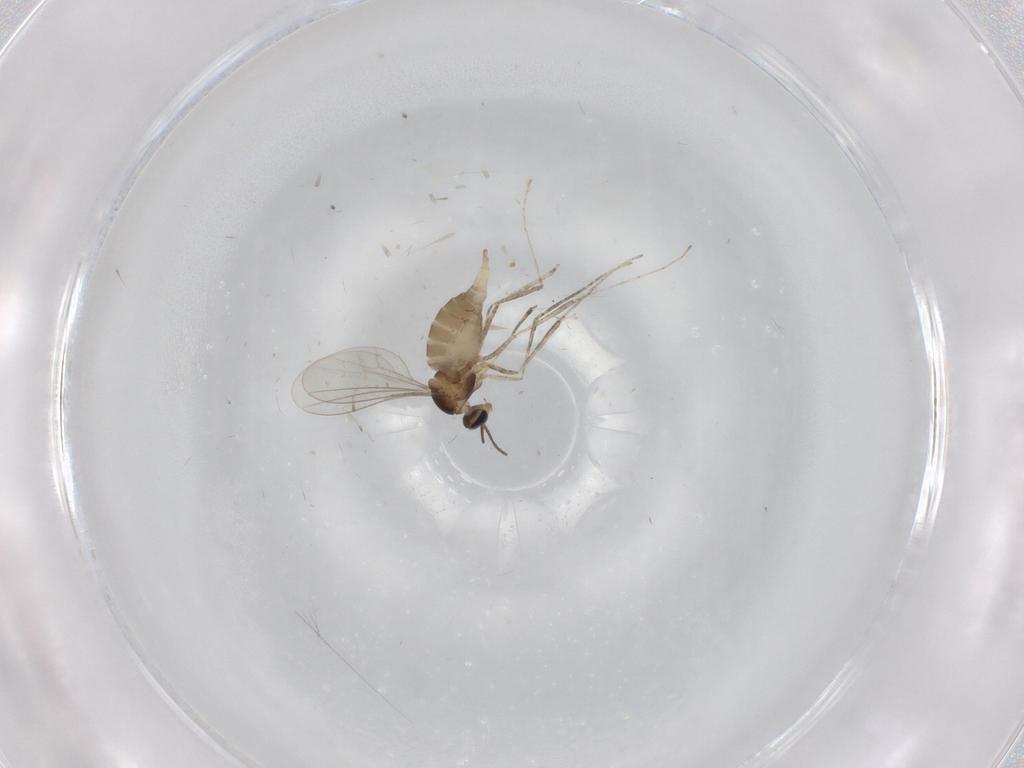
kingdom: Animalia
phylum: Arthropoda
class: Insecta
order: Diptera
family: Cecidomyiidae
